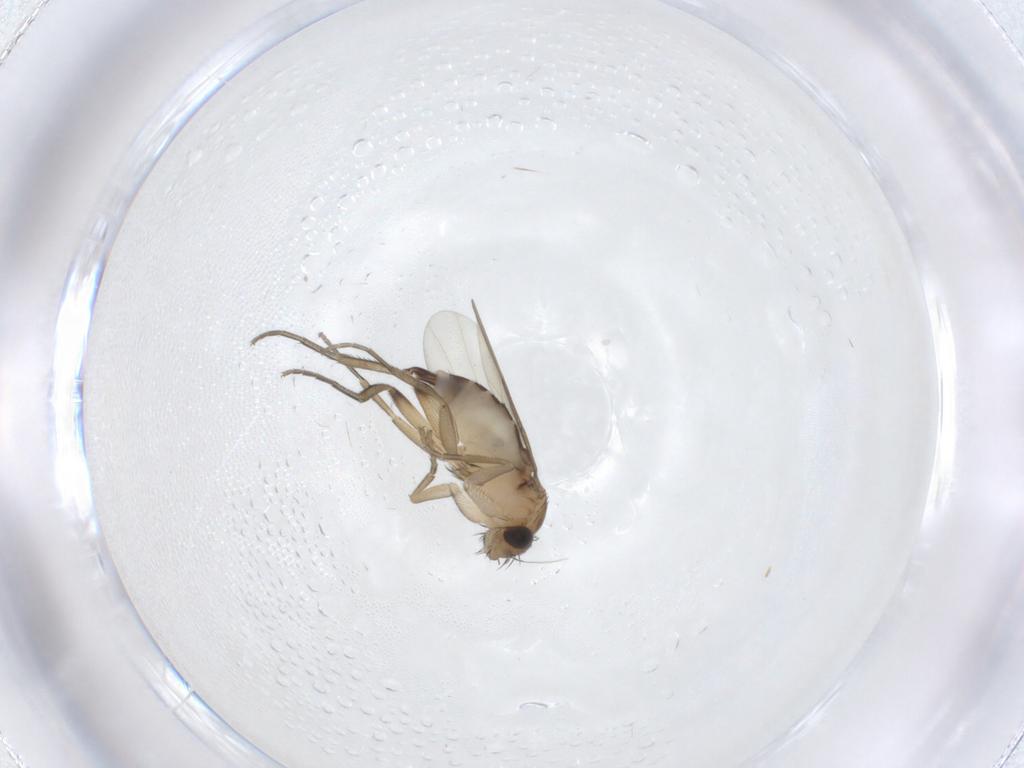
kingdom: Animalia
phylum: Arthropoda
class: Insecta
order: Diptera
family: Phoridae
